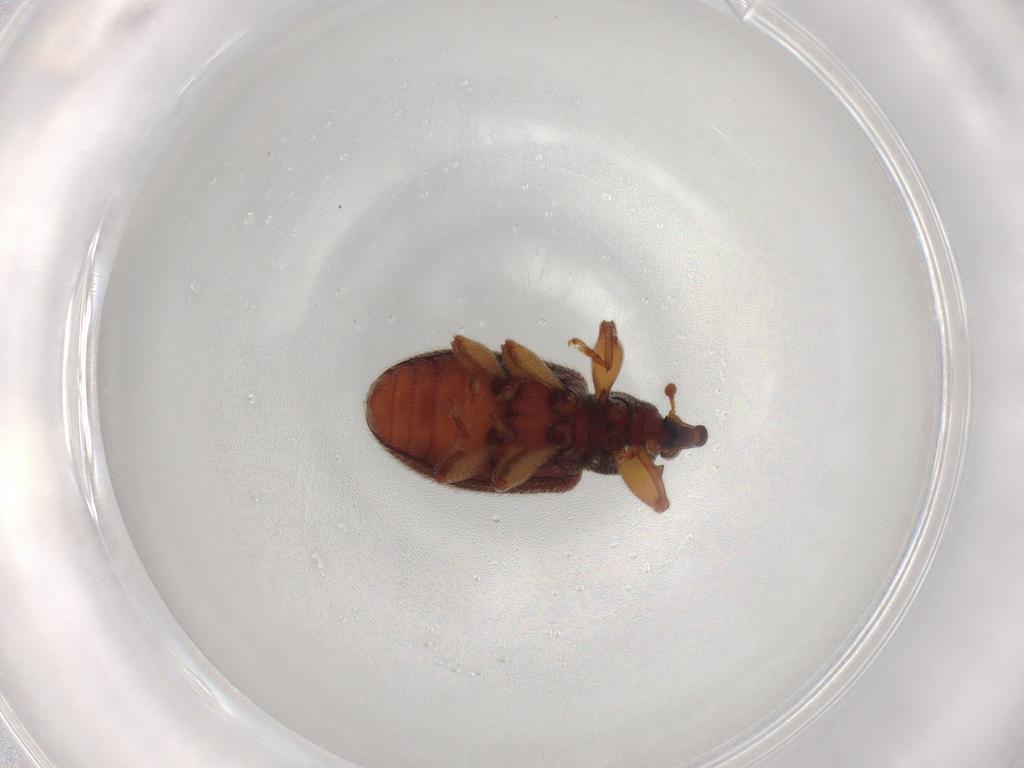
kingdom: Animalia
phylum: Arthropoda
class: Insecta
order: Coleoptera
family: Curculionidae
